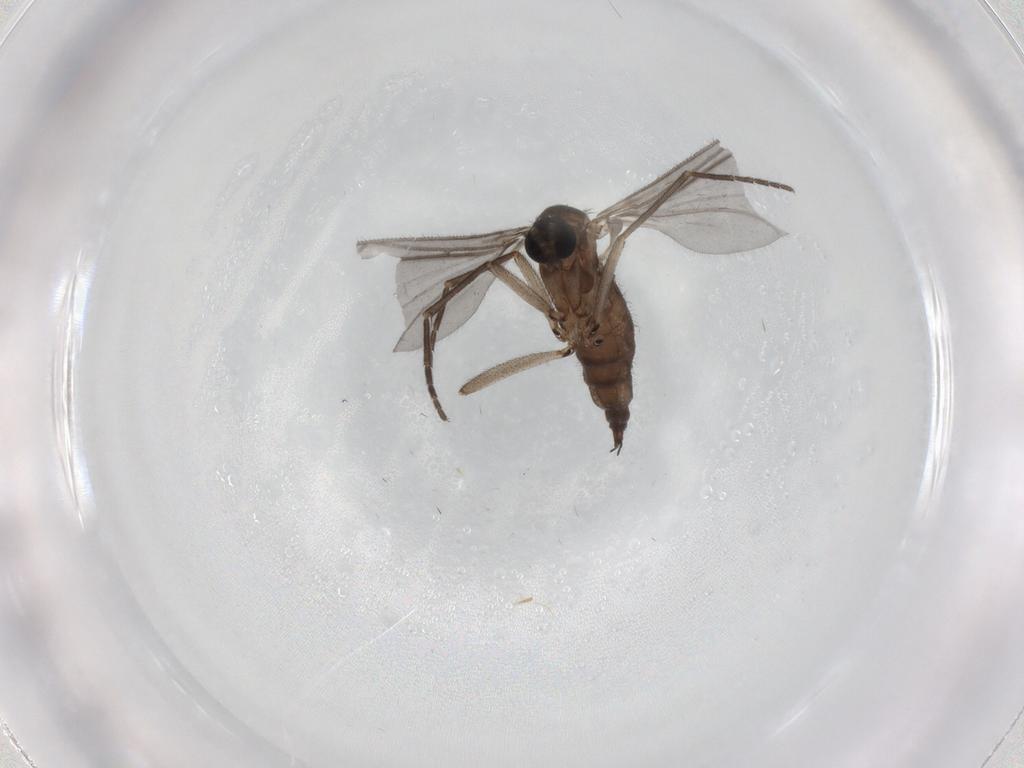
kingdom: Animalia
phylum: Arthropoda
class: Insecta
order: Diptera
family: Sciaridae
